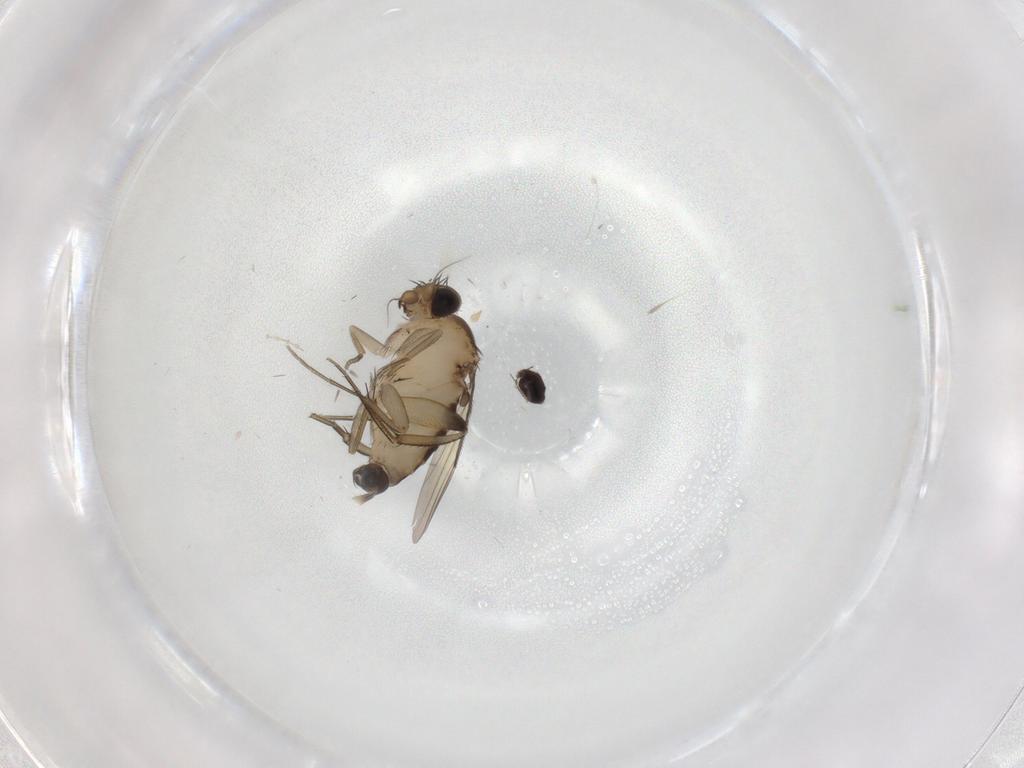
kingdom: Animalia
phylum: Arthropoda
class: Insecta
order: Diptera
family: Phoridae
